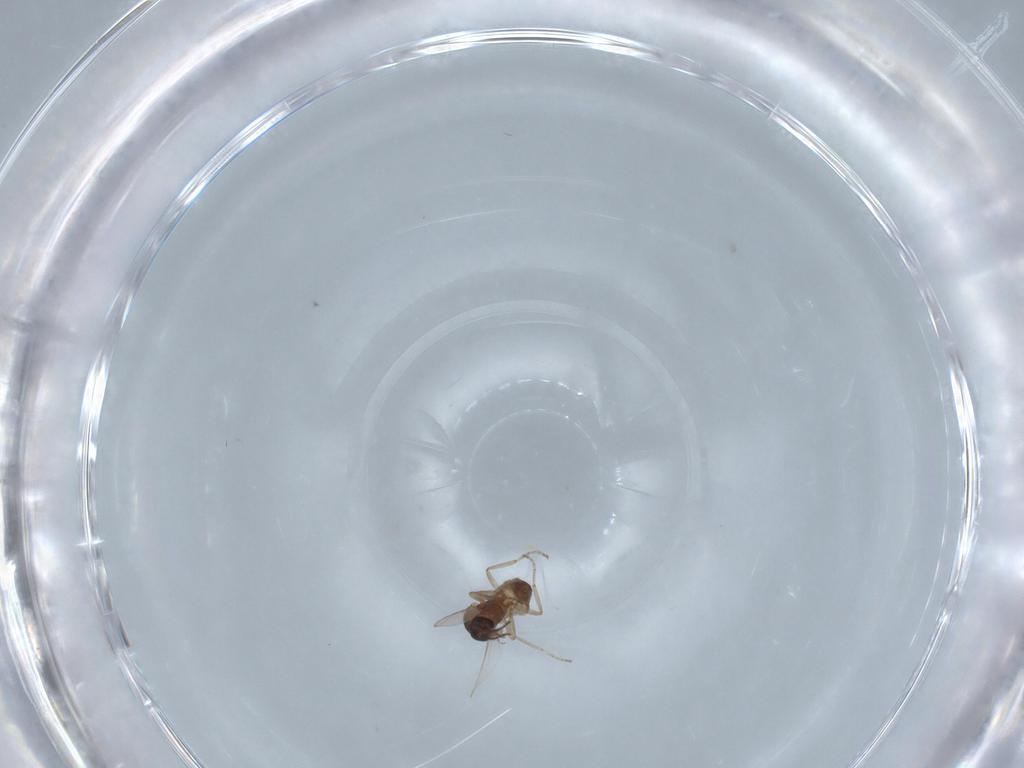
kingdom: Animalia
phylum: Arthropoda
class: Insecta
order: Diptera
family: Ceratopogonidae
